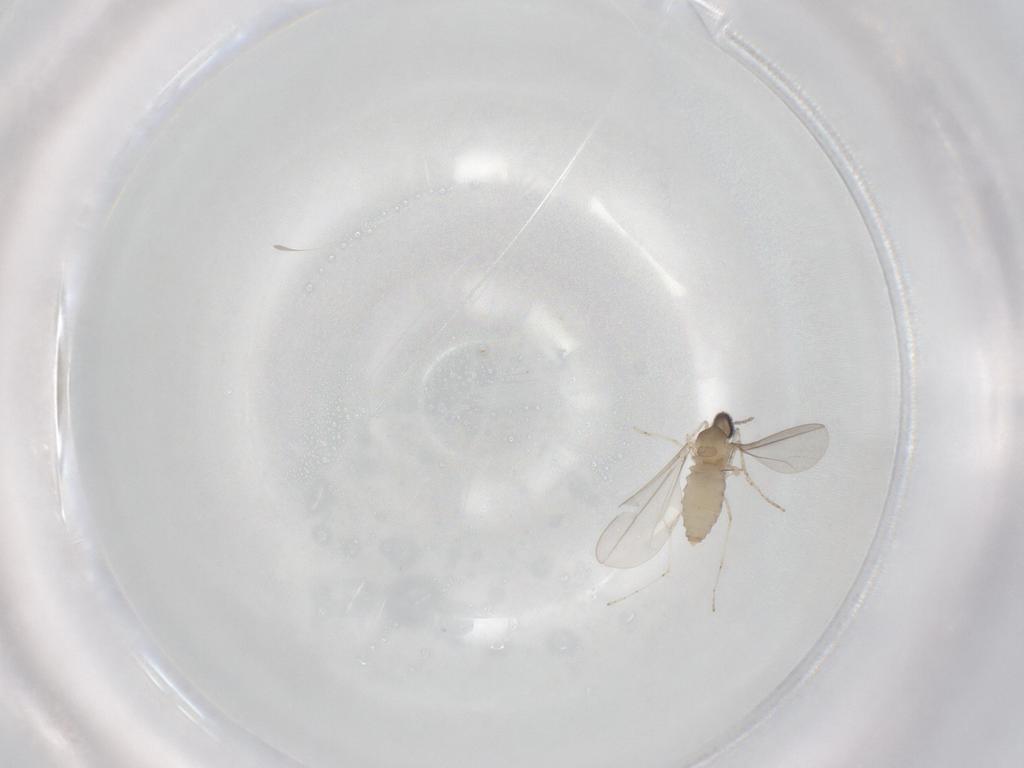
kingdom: Animalia
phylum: Arthropoda
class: Insecta
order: Diptera
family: Cecidomyiidae
